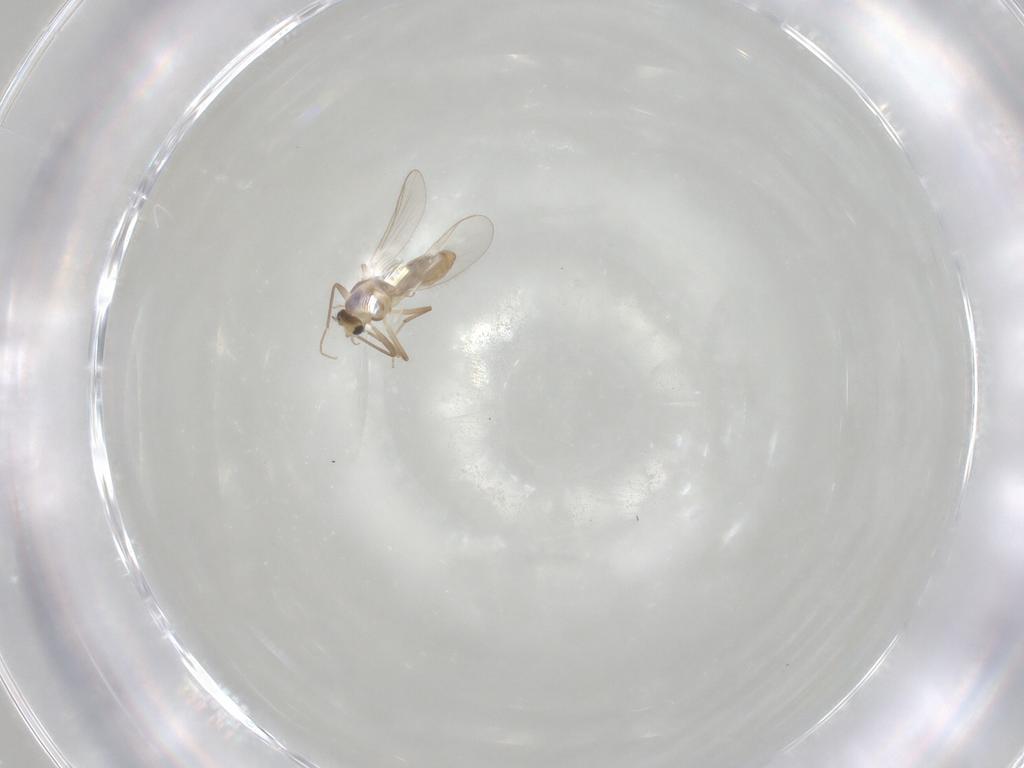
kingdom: Animalia
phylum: Arthropoda
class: Insecta
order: Diptera
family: Chironomidae
